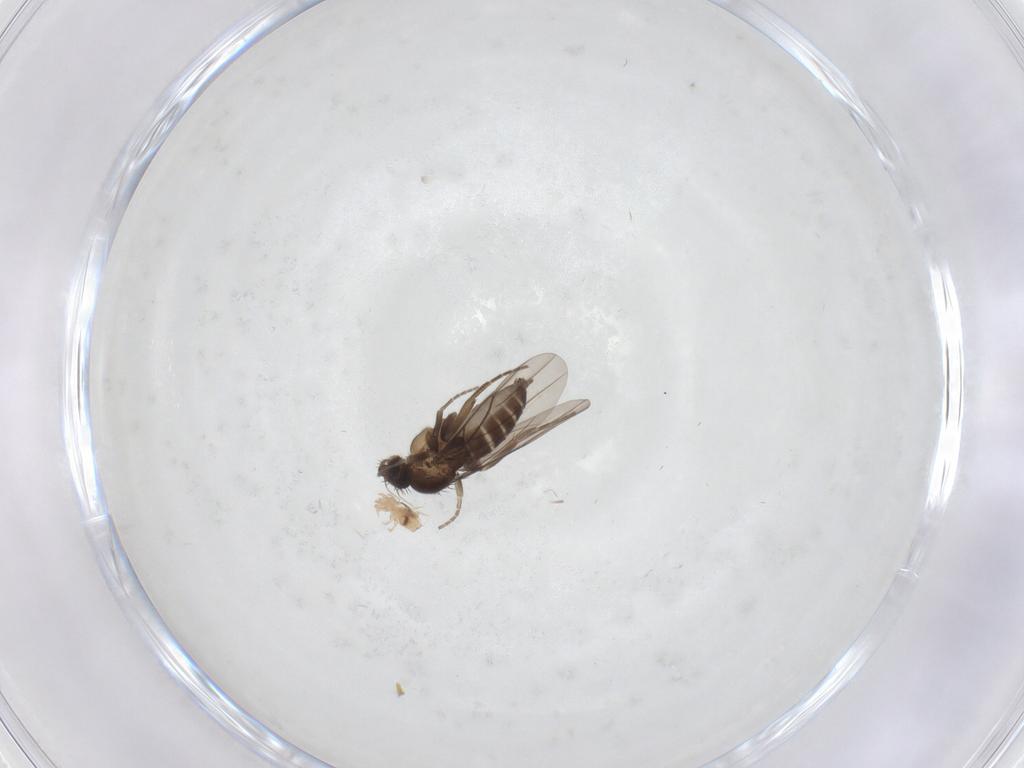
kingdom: Animalia
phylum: Arthropoda
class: Insecta
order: Diptera
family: Phoridae
